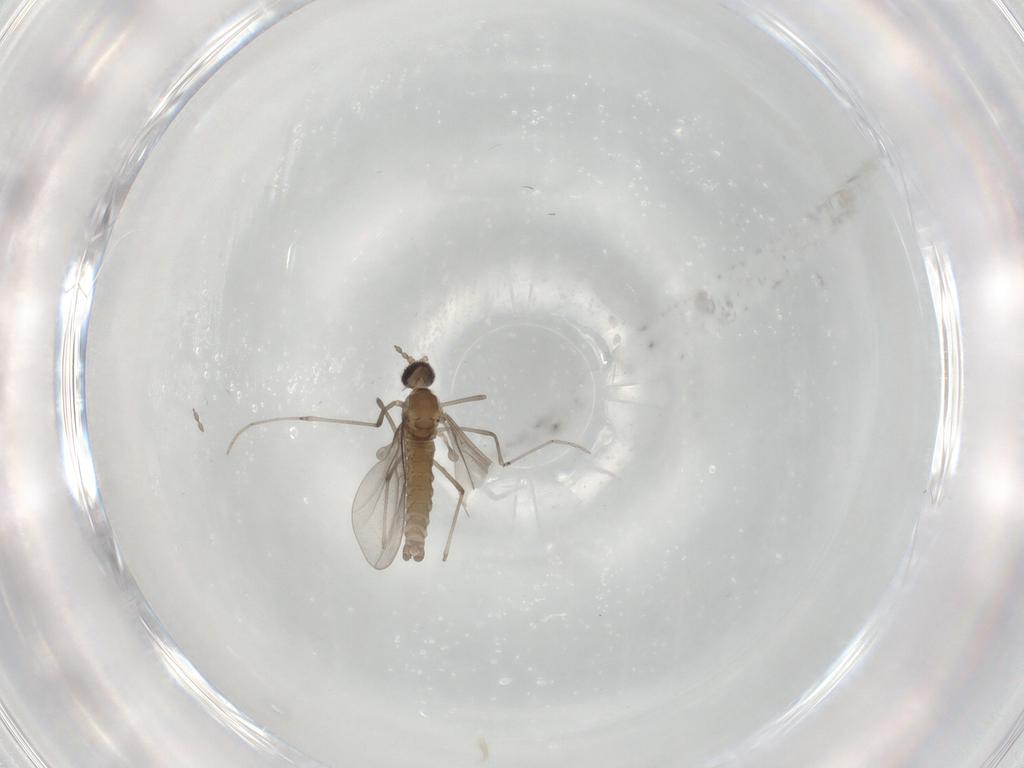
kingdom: Animalia
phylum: Arthropoda
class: Insecta
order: Diptera
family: Cecidomyiidae
